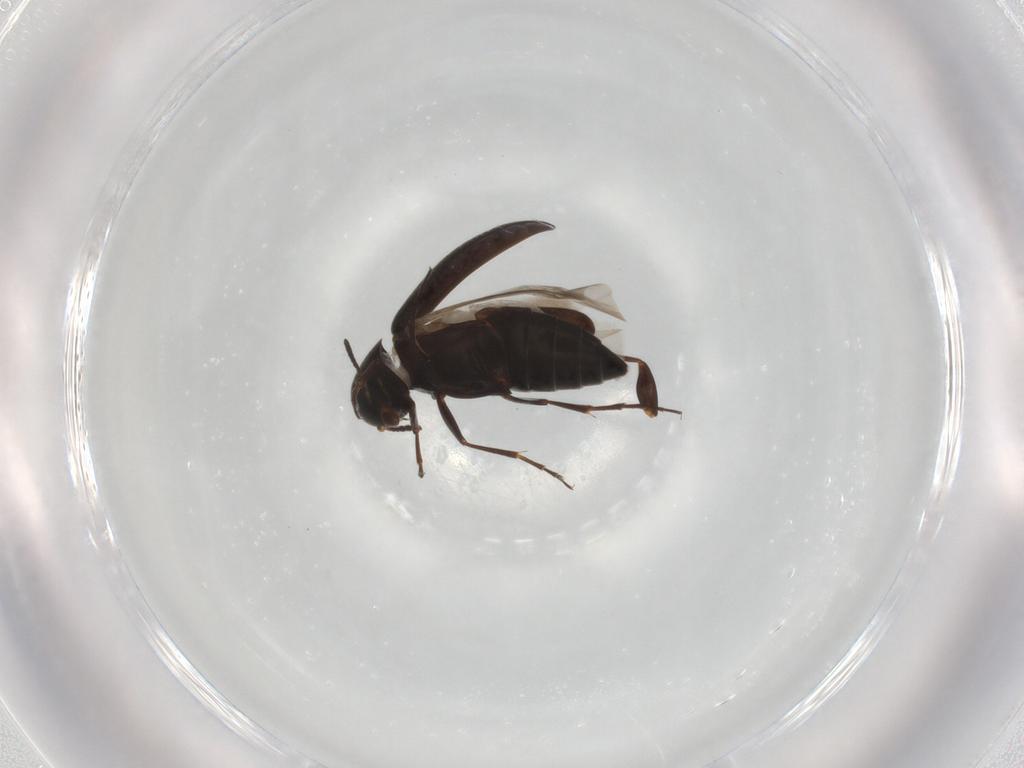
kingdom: Animalia
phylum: Arthropoda
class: Insecta
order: Coleoptera
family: Scraptiidae
